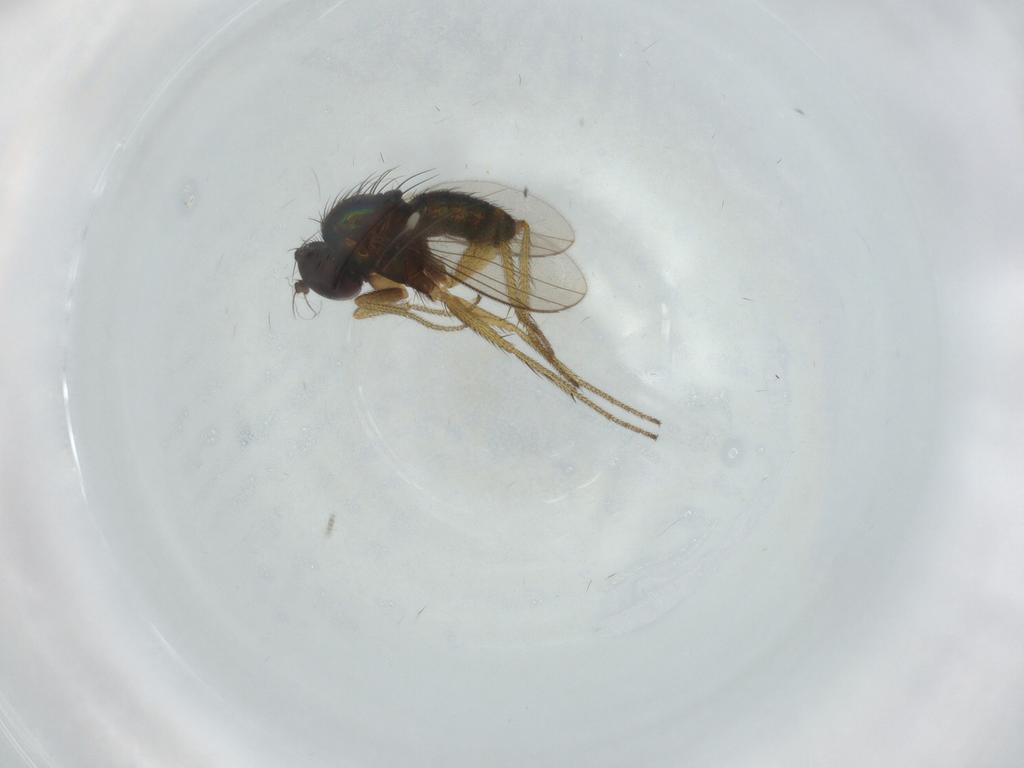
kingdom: Animalia
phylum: Arthropoda
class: Insecta
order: Diptera
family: Sciaridae
